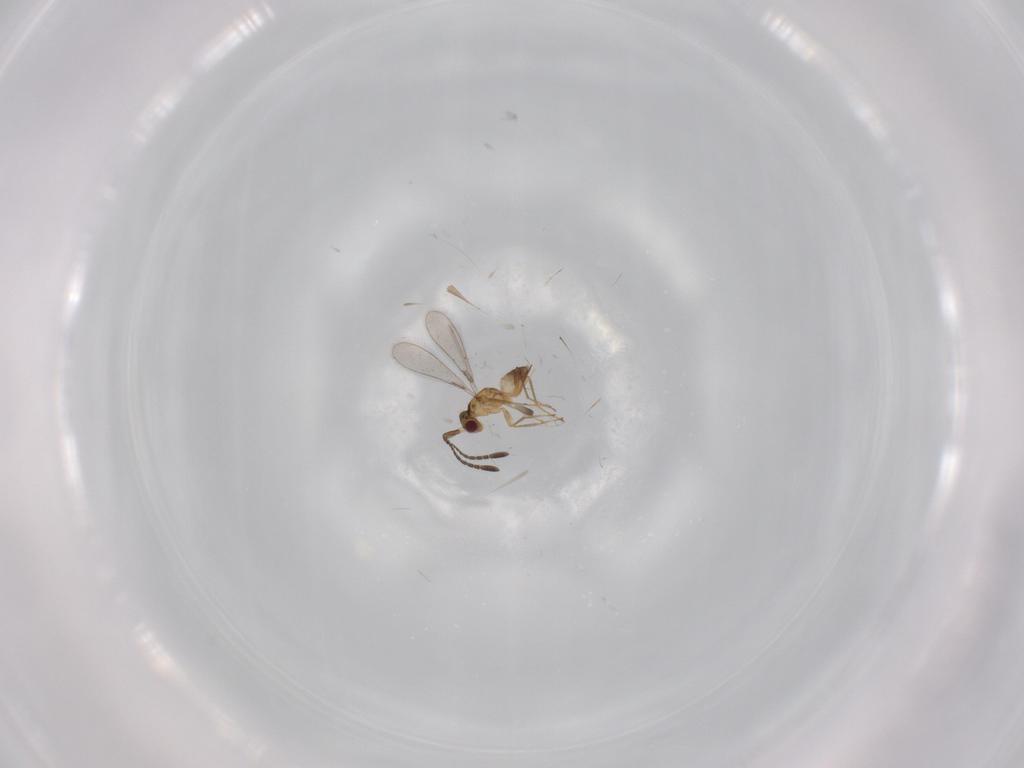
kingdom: Animalia
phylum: Arthropoda
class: Insecta
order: Hymenoptera
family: Mymaridae
